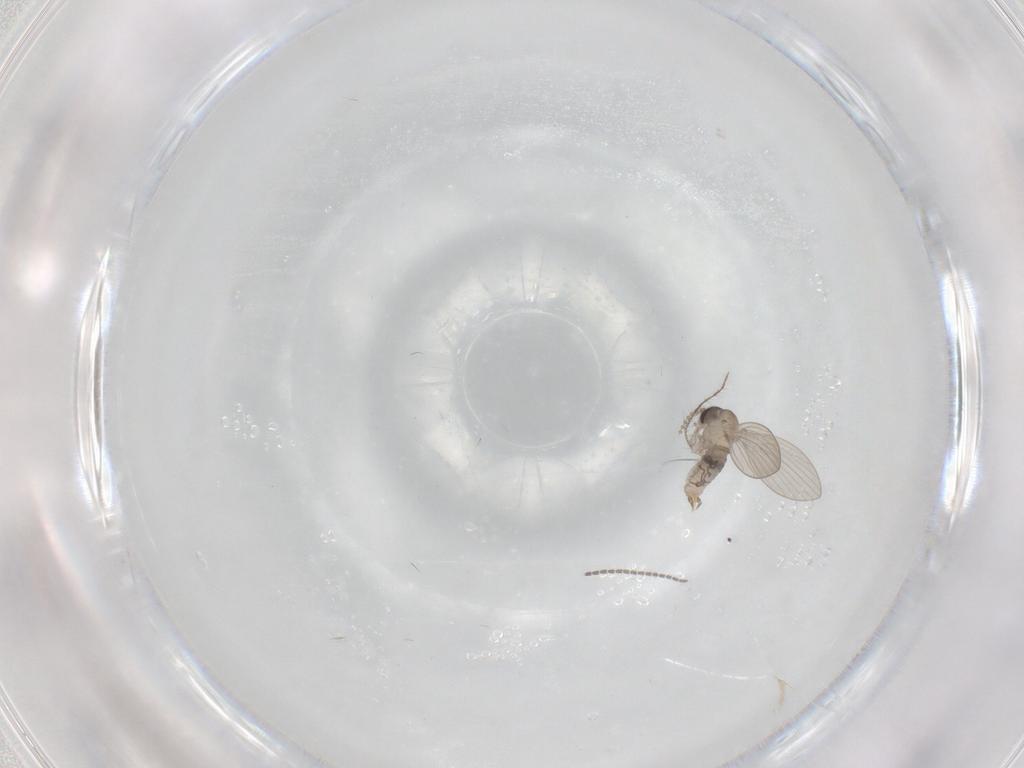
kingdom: Animalia
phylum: Arthropoda
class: Insecta
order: Diptera
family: Psychodidae
